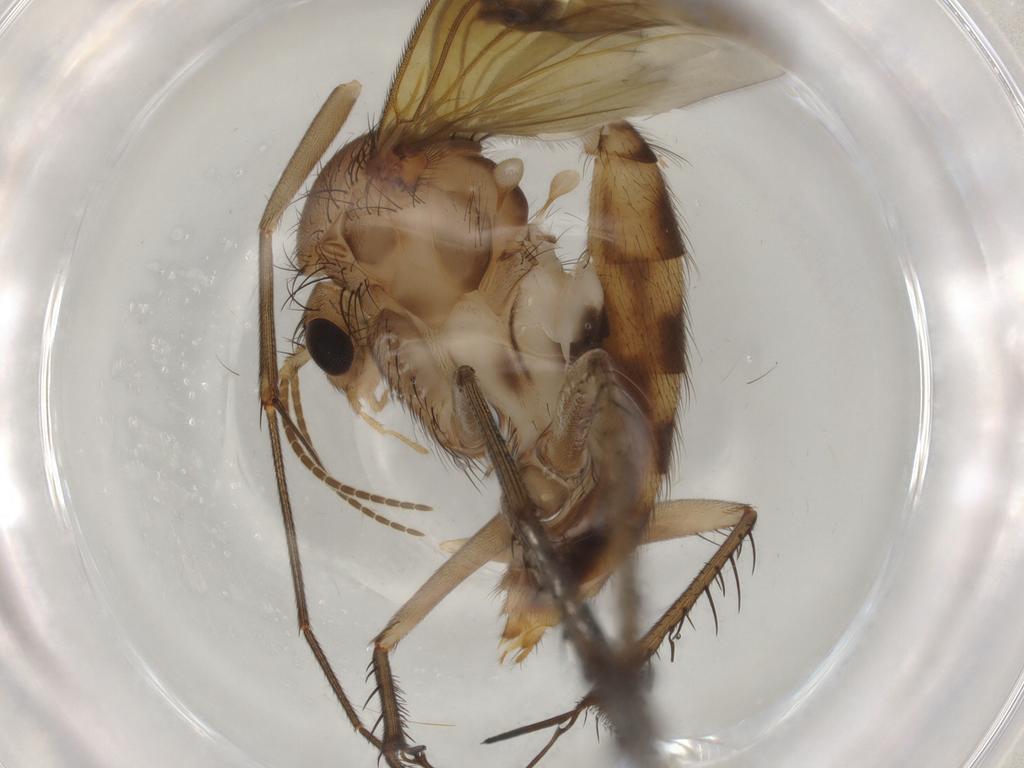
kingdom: Animalia
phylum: Arthropoda
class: Insecta
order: Diptera
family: Mycetophilidae
